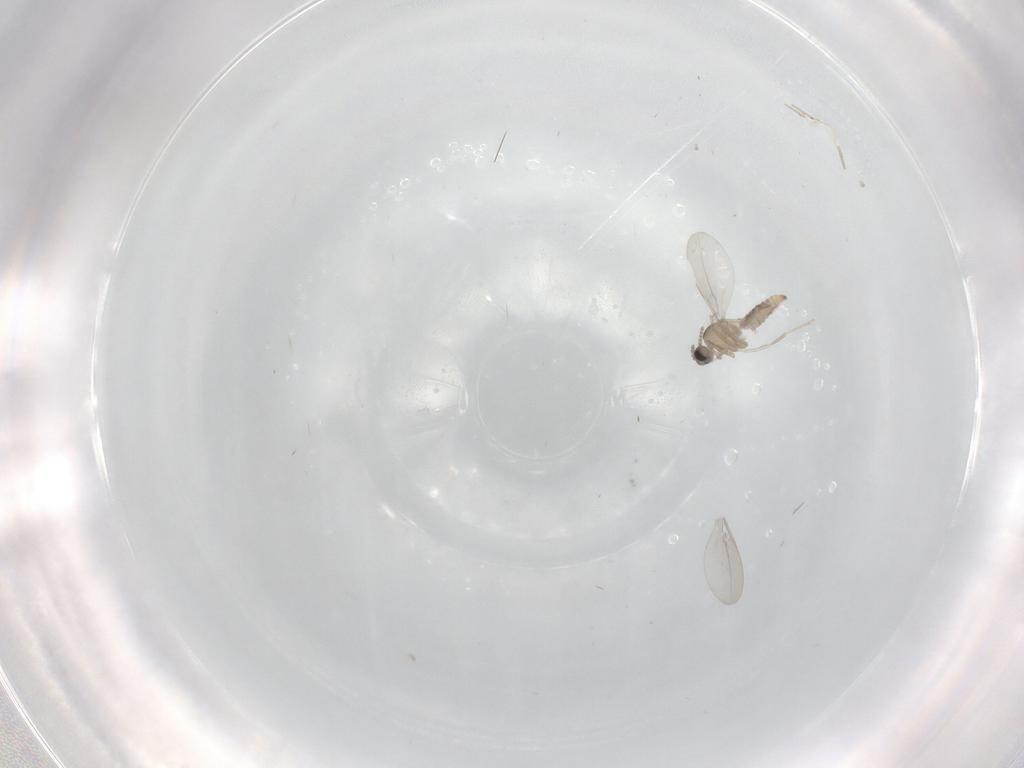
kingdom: Animalia
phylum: Arthropoda
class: Insecta
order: Diptera
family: Cecidomyiidae
